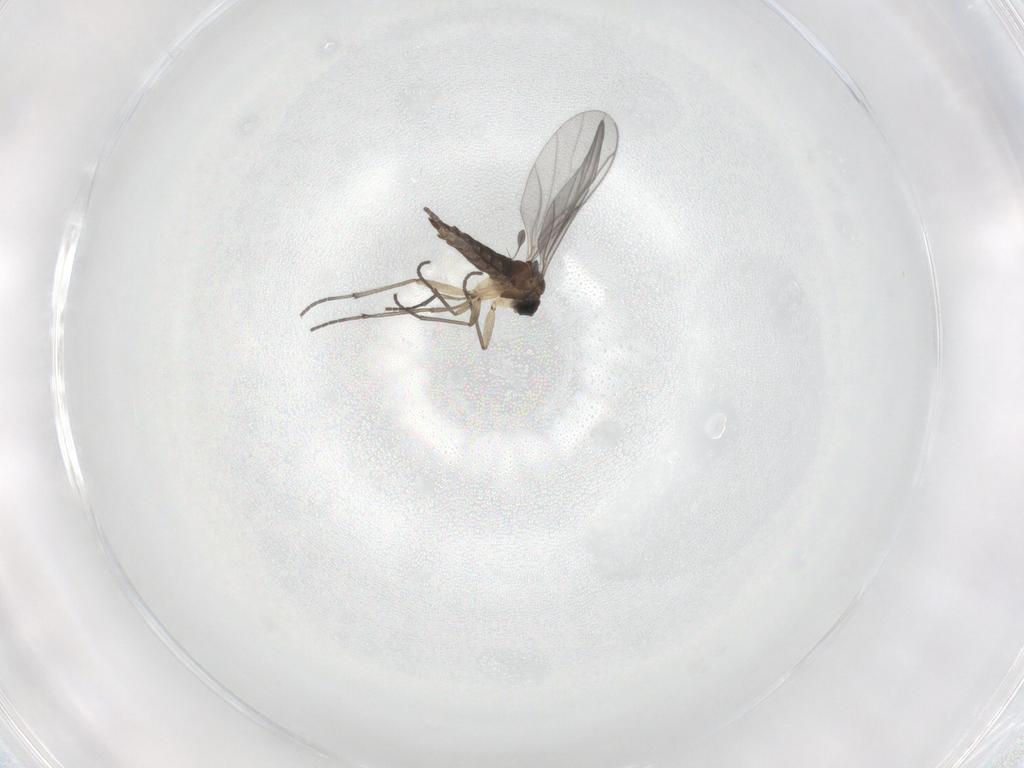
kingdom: Animalia
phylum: Arthropoda
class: Insecta
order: Diptera
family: Sciaridae
